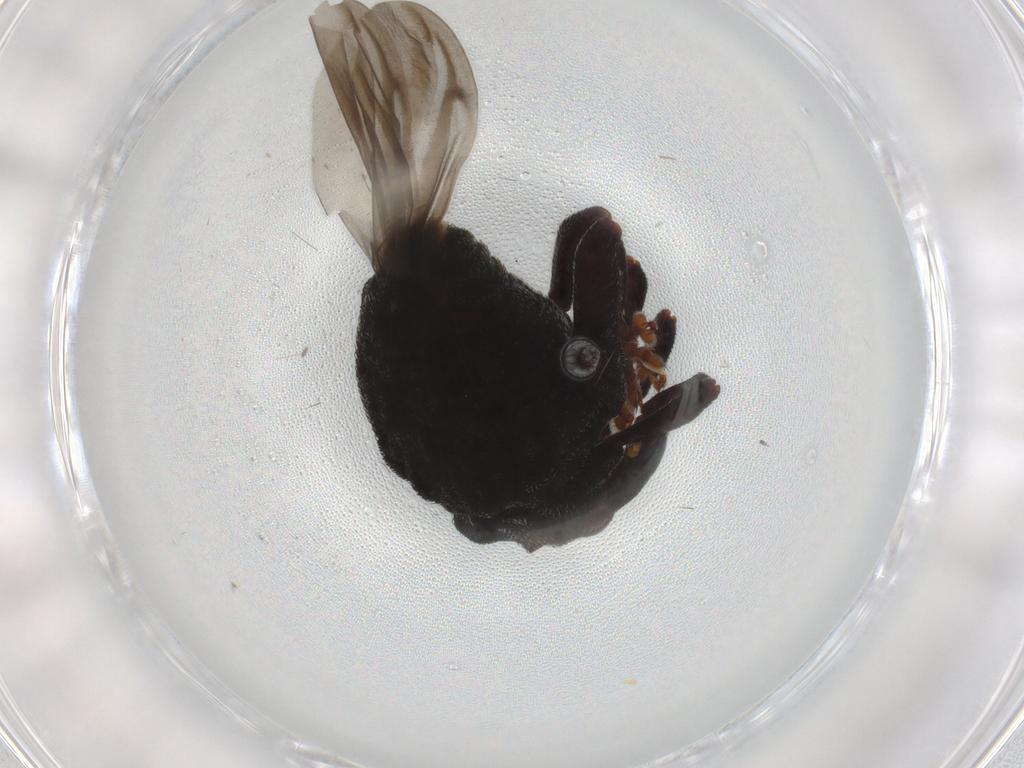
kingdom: Animalia
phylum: Arthropoda
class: Insecta
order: Coleoptera
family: Curculionidae
